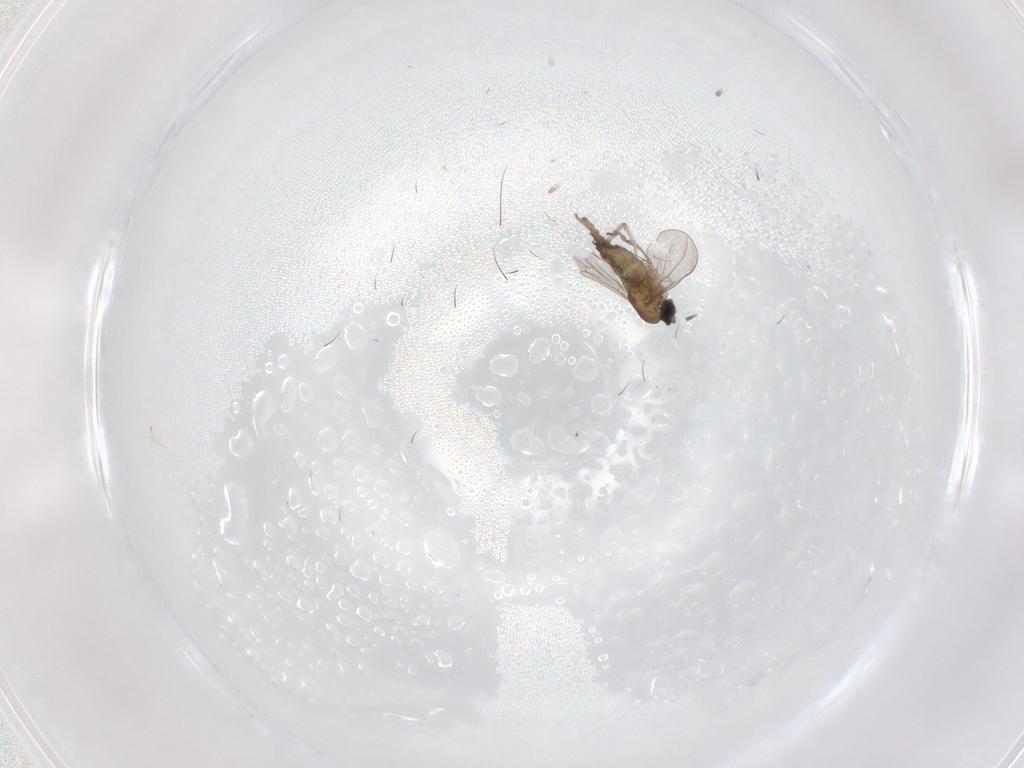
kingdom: Animalia
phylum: Arthropoda
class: Insecta
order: Diptera
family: Cecidomyiidae
